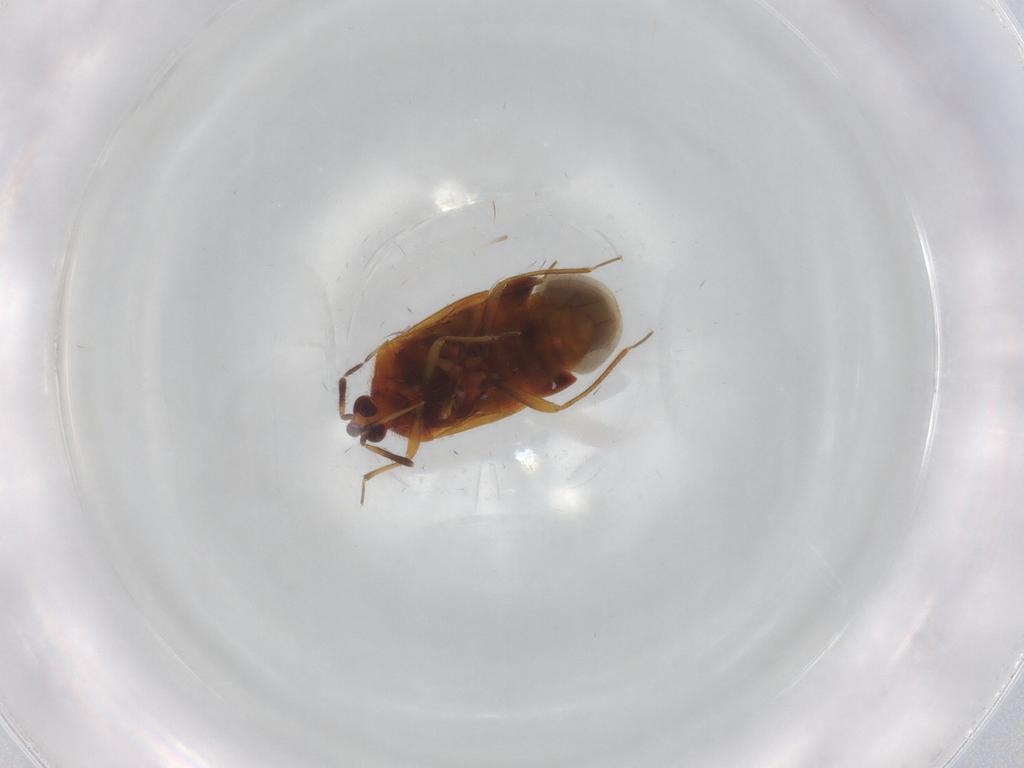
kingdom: Animalia
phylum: Arthropoda
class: Insecta
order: Hemiptera
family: Anthocoridae
